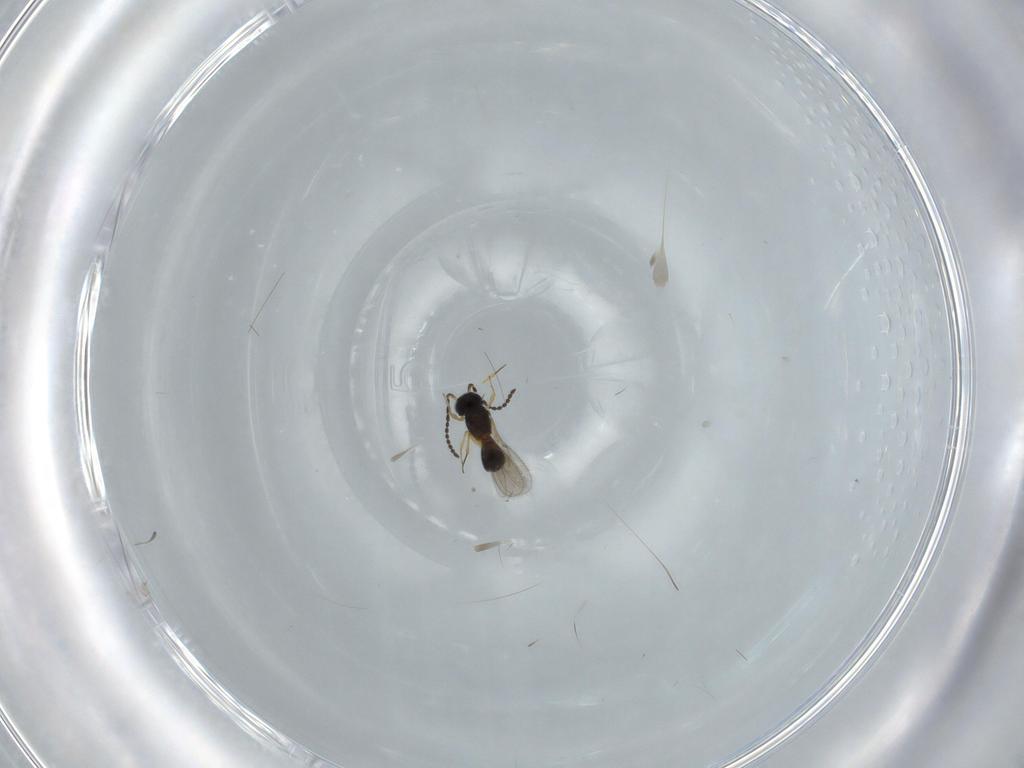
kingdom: Animalia
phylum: Arthropoda
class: Insecta
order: Hymenoptera
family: Scelionidae
